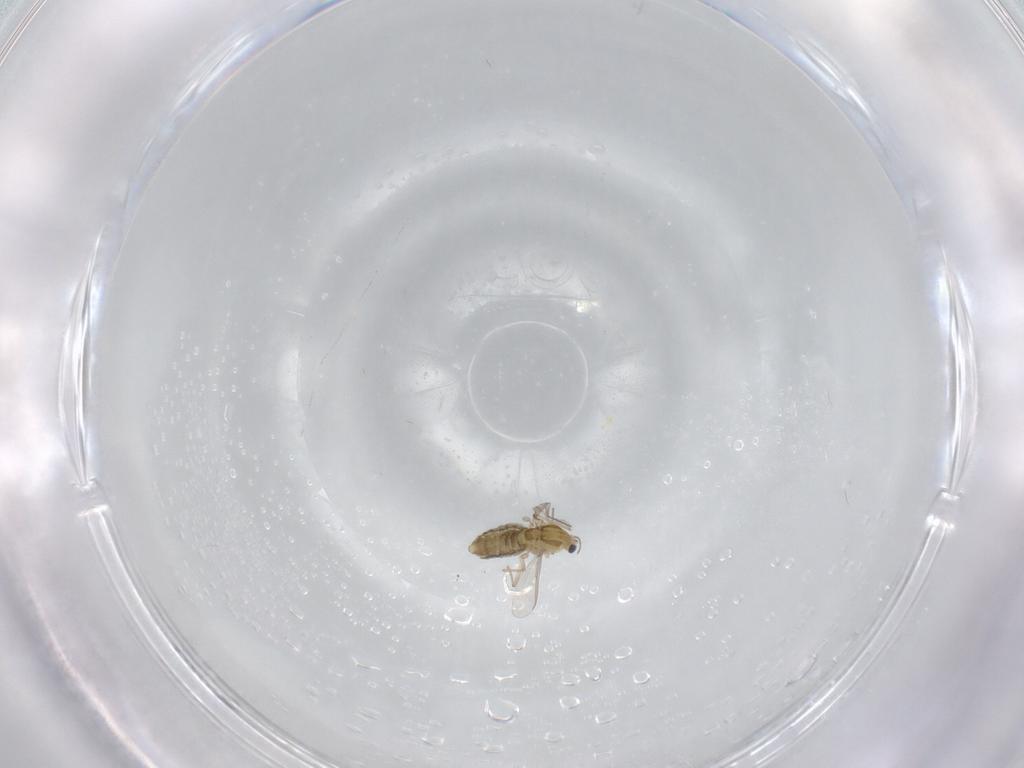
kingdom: Animalia
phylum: Arthropoda
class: Insecta
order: Diptera
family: Chironomidae
